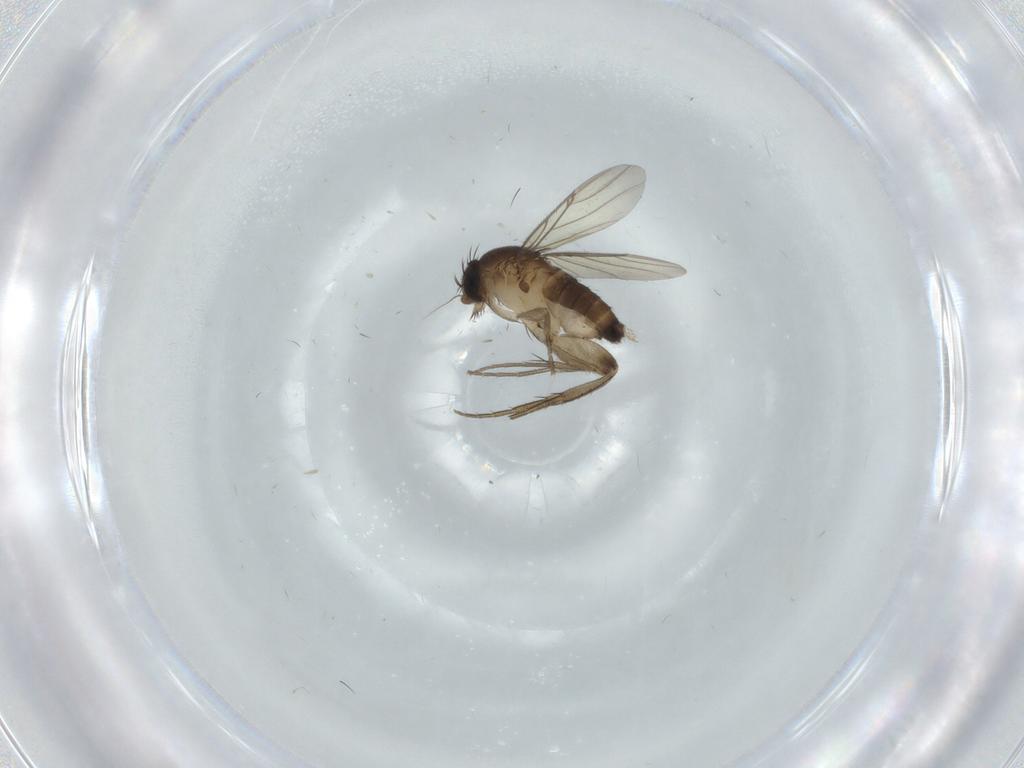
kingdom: Animalia
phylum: Arthropoda
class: Insecta
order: Diptera
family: Phoridae
